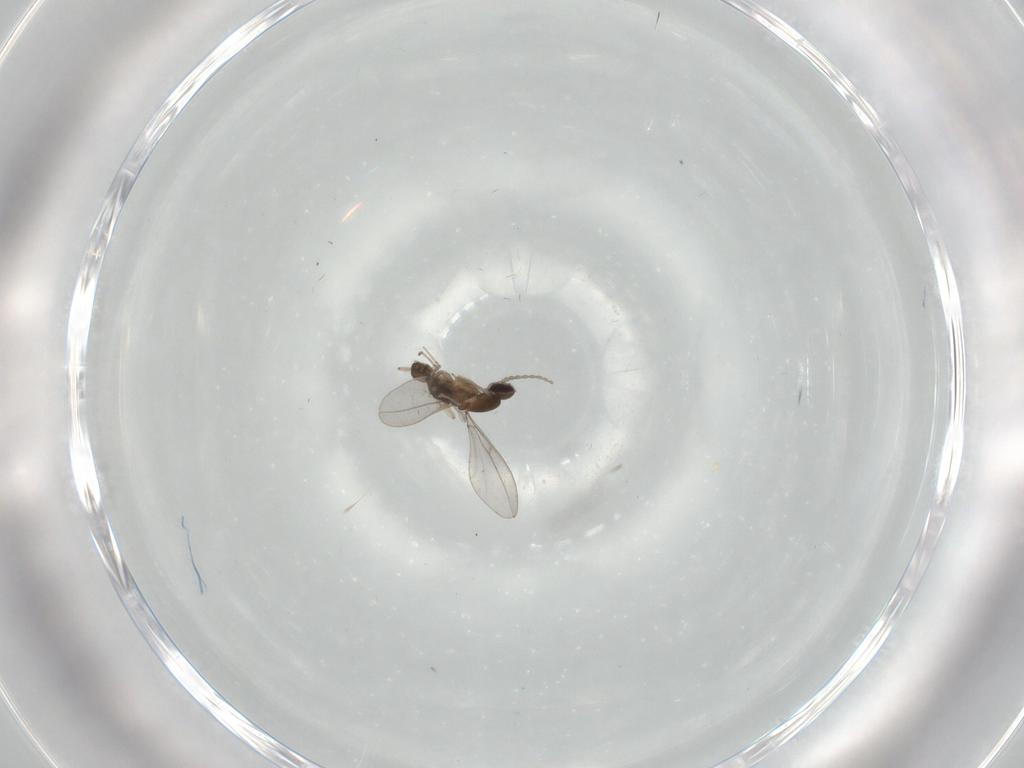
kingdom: Animalia
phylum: Arthropoda
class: Insecta
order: Diptera
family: Cecidomyiidae
